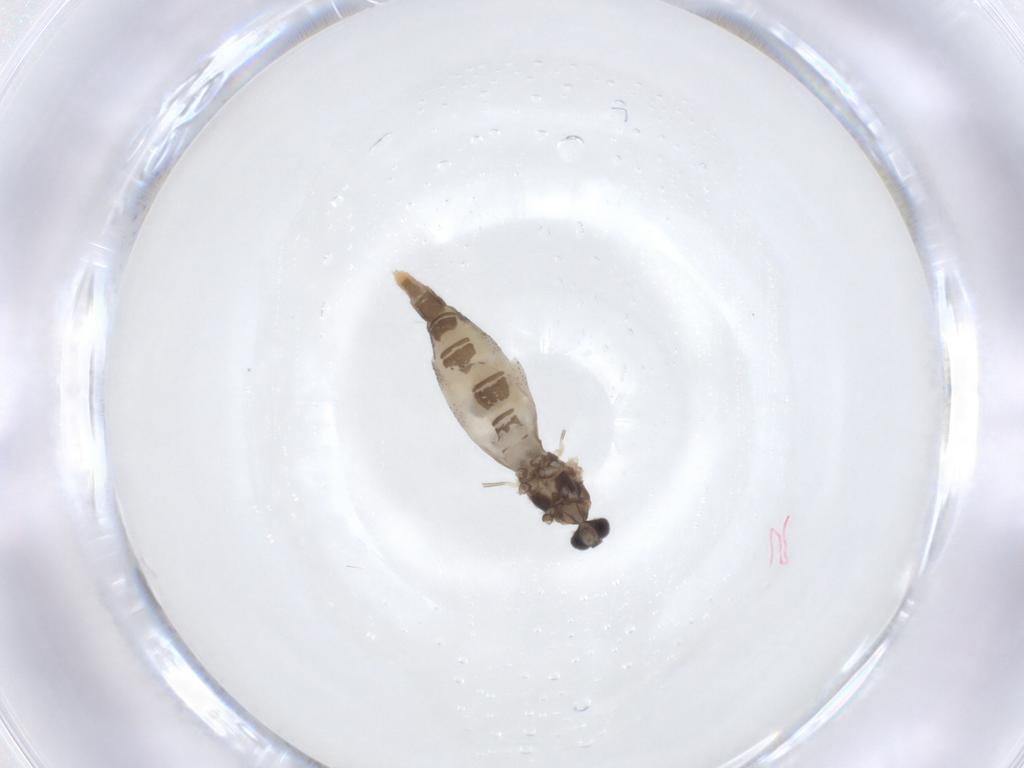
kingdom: Animalia
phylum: Arthropoda
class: Insecta
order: Diptera
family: Cecidomyiidae
